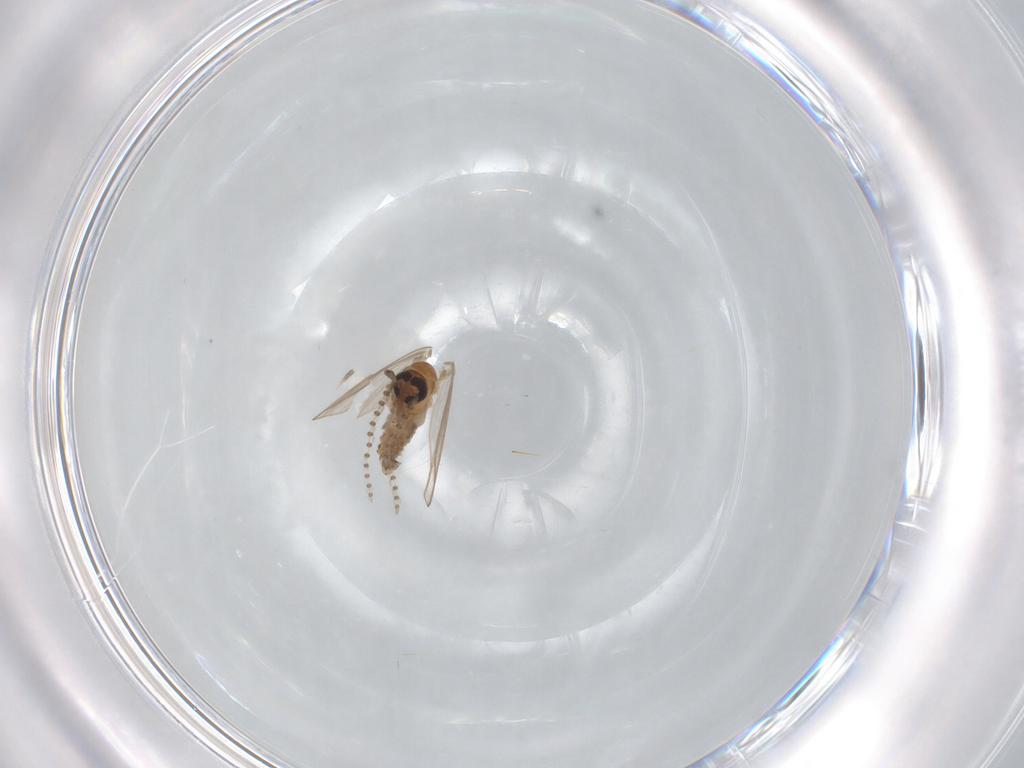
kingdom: Animalia
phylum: Arthropoda
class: Insecta
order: Diptera
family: Psychodidae
